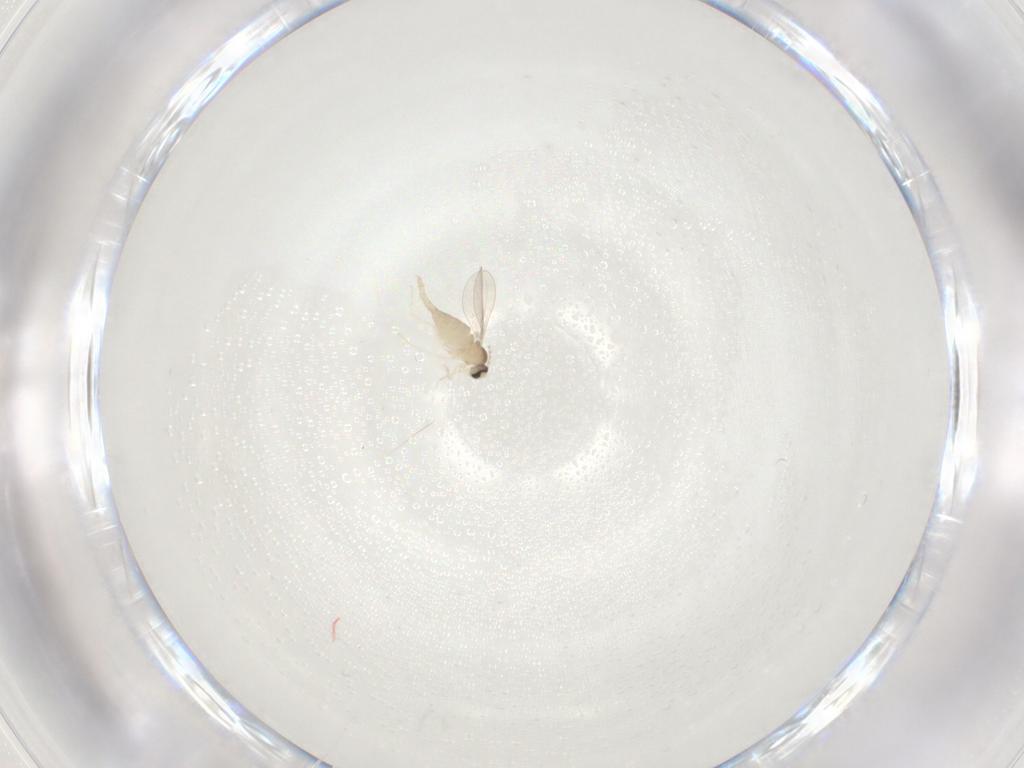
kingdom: Animalia
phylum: Arthropoda
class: Insecta
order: Diptera
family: Cecidomyiidae
